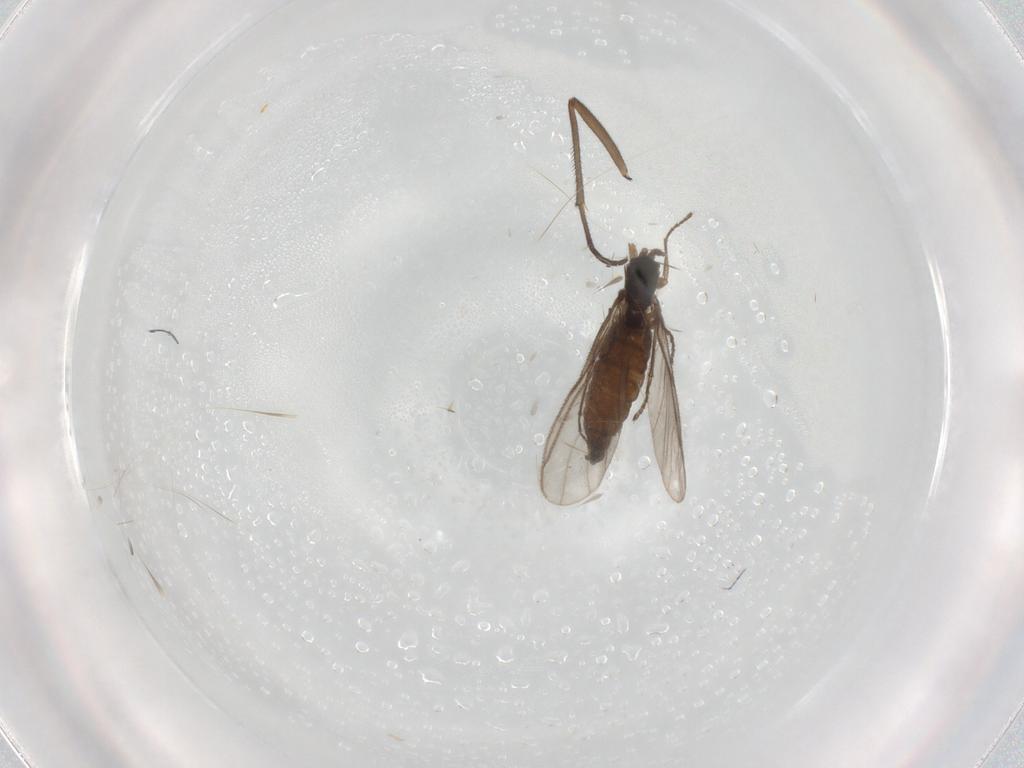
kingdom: Animalia
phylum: Arthropoda
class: Insecta
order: Diptera
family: Sciaridae
